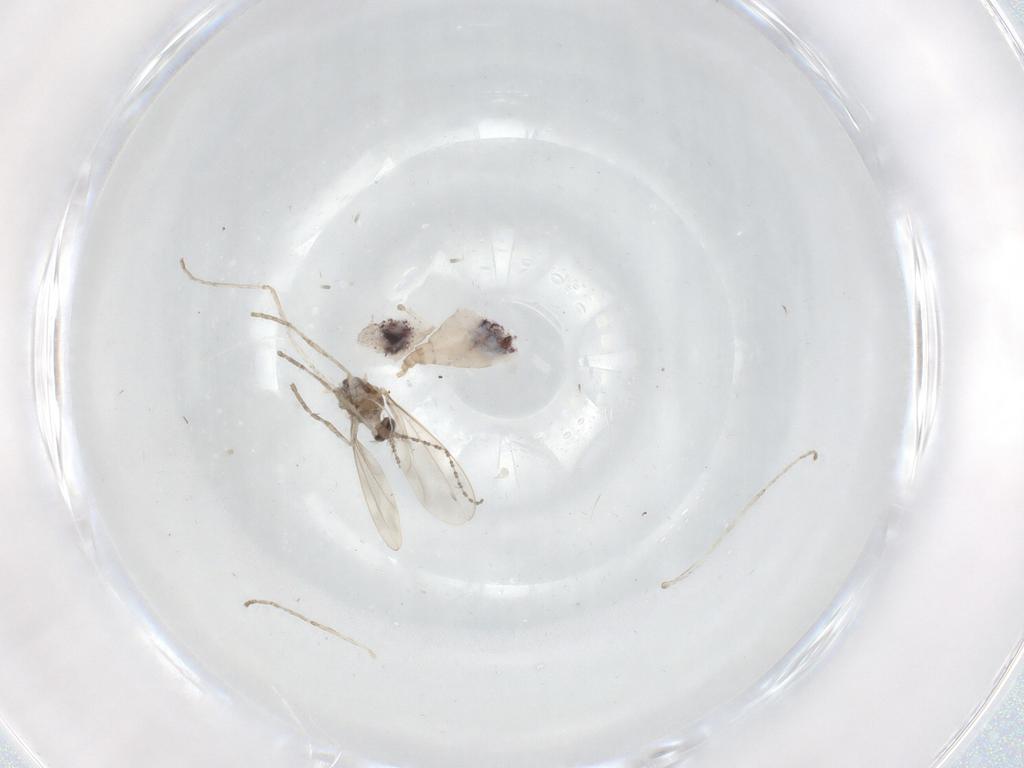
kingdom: Animalia
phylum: Arthropoda
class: Insecta
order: Diptera
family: Cecidomyiidae
